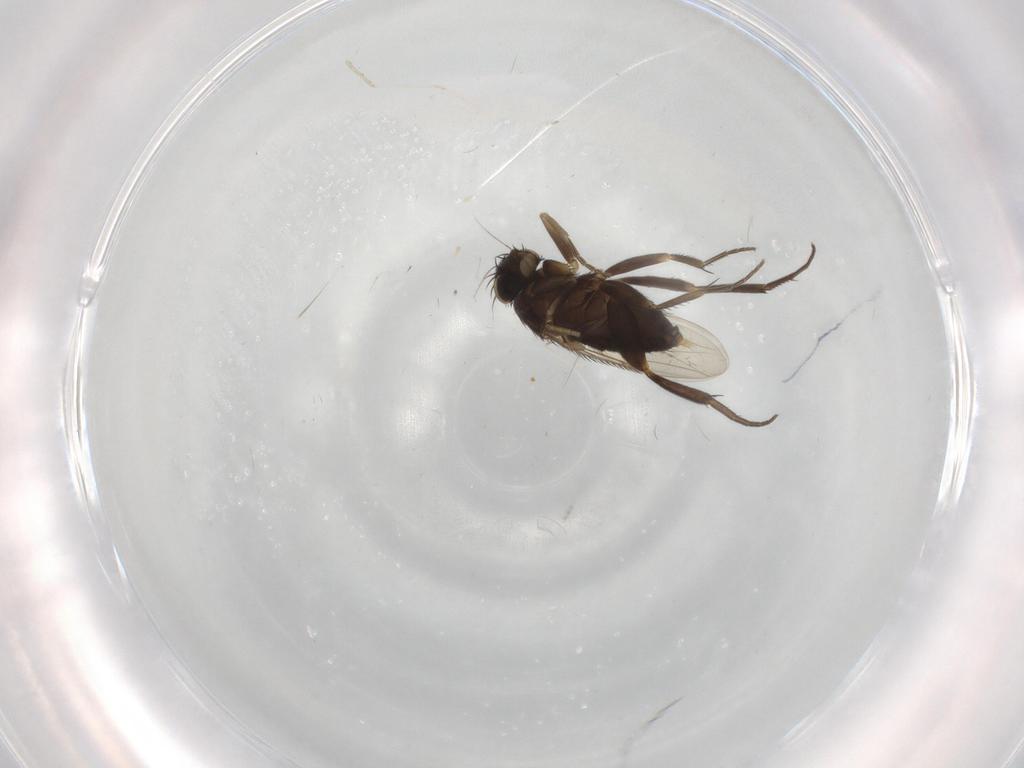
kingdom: Animalia
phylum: Arthropoda
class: Insecta
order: Diptera
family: Phoridae
